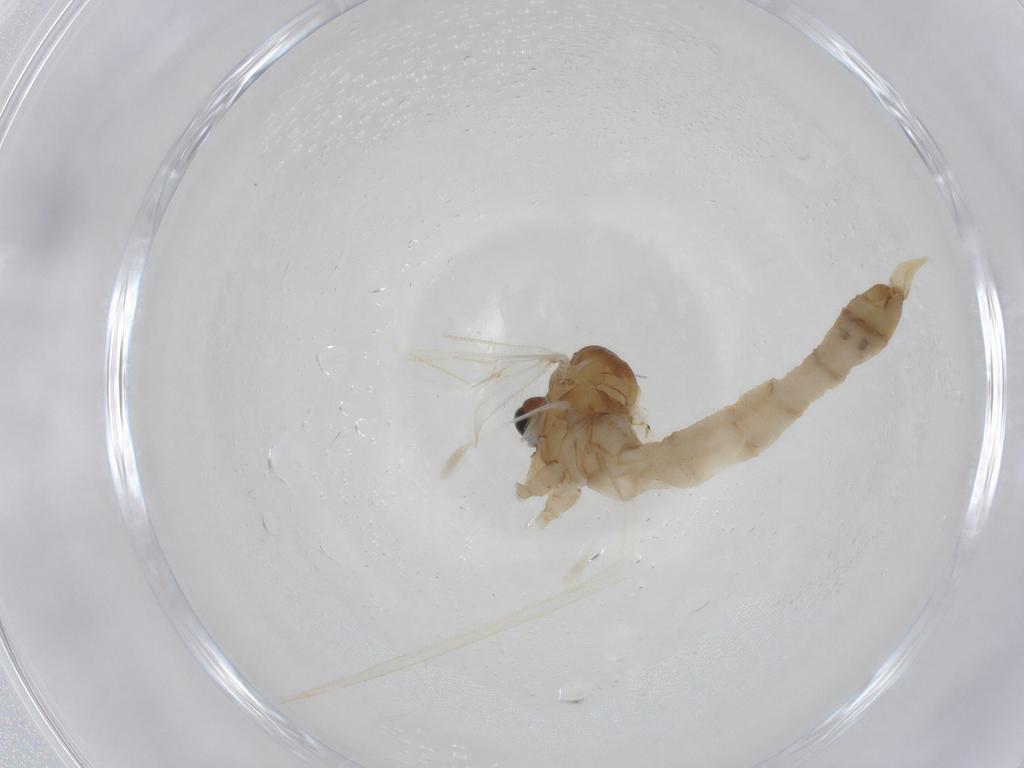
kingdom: Animalia
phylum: Arthropoda
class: Insecta
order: Diptera
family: Trichoceridae
